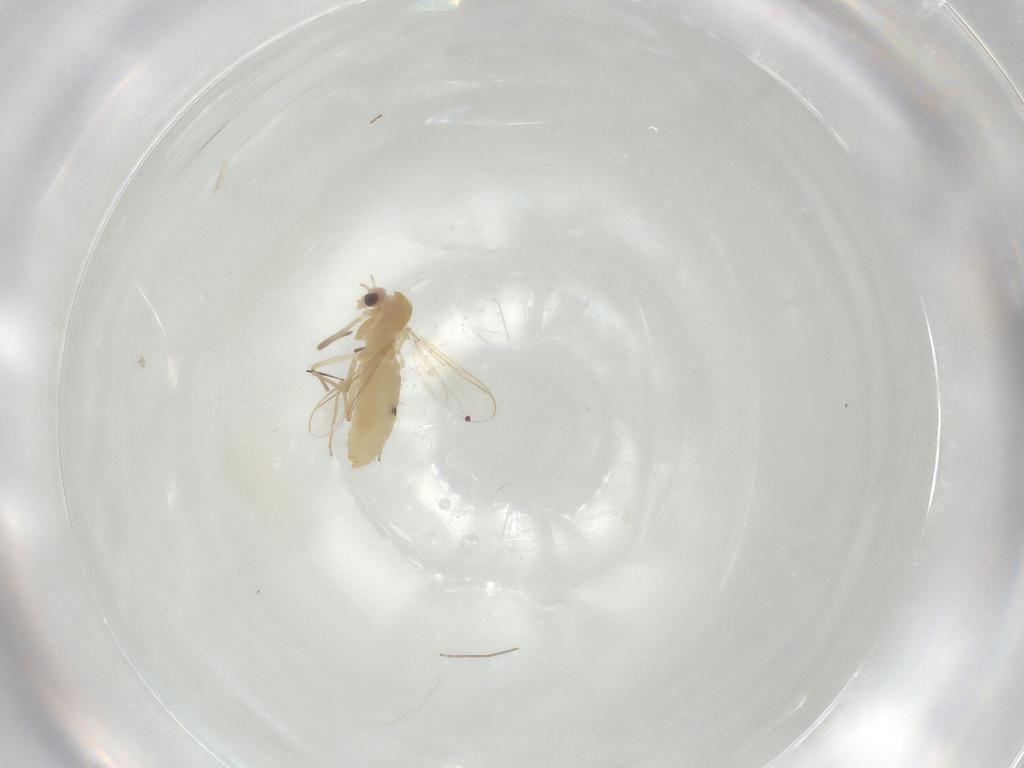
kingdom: Animalia
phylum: Arthropoda
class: Insecta
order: Diptera
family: Chironomidae
